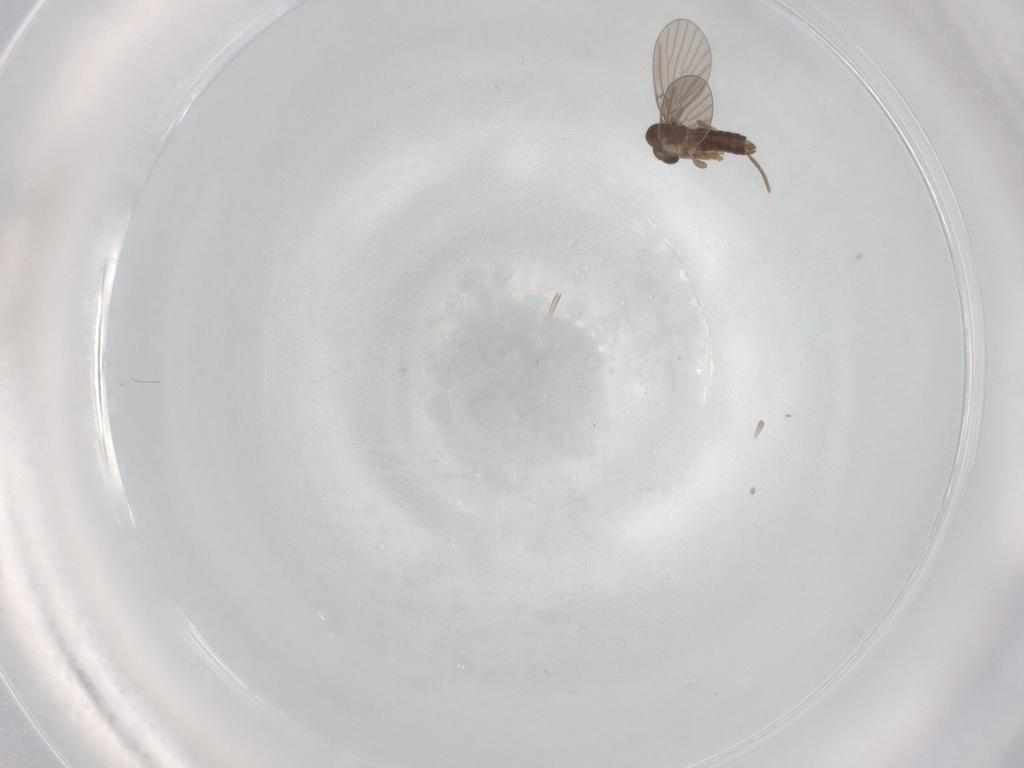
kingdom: Animalia
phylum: Arthropoda
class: Insecta
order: Diptera
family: Psychodidae
